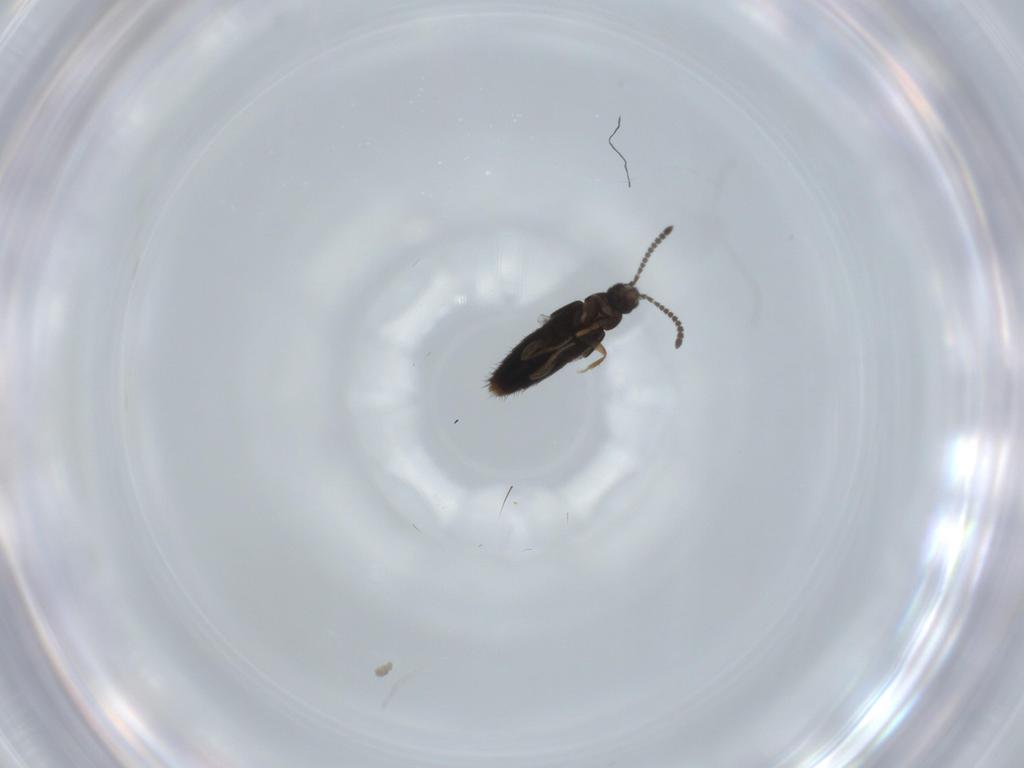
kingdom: Animalia
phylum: Arthropoda
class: Insecta
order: Coleoptera
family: Staphylinidae
